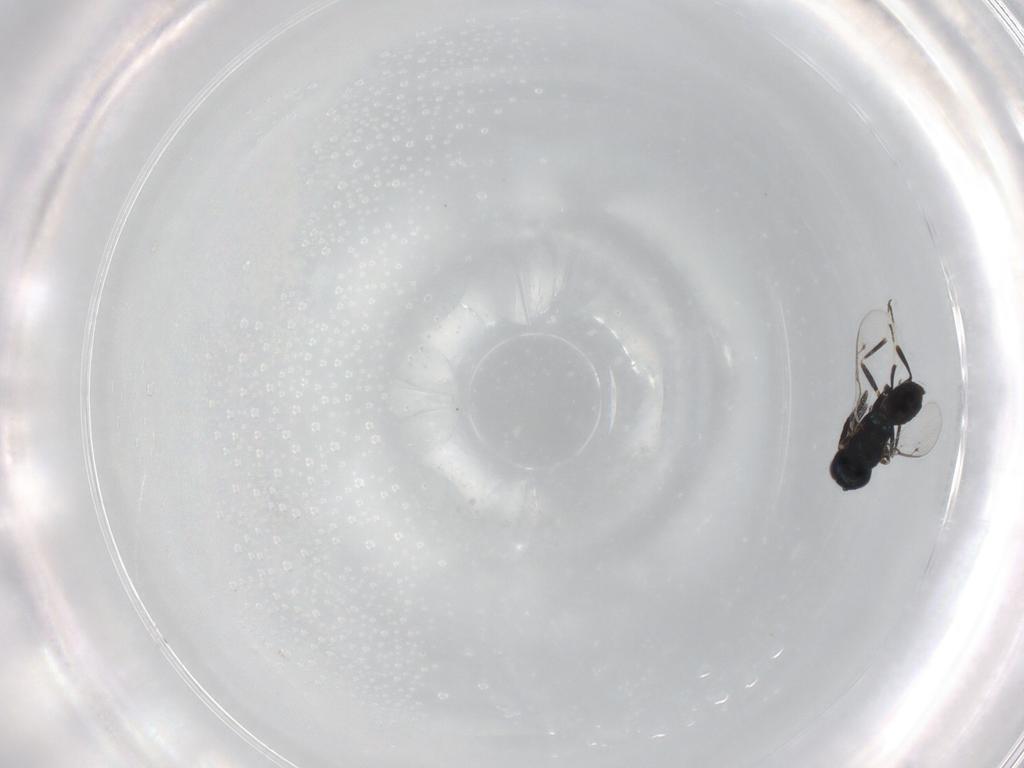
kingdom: Animalia
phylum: Arthropoda
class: Insecta
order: Hymenoptera
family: Eupelmidae
